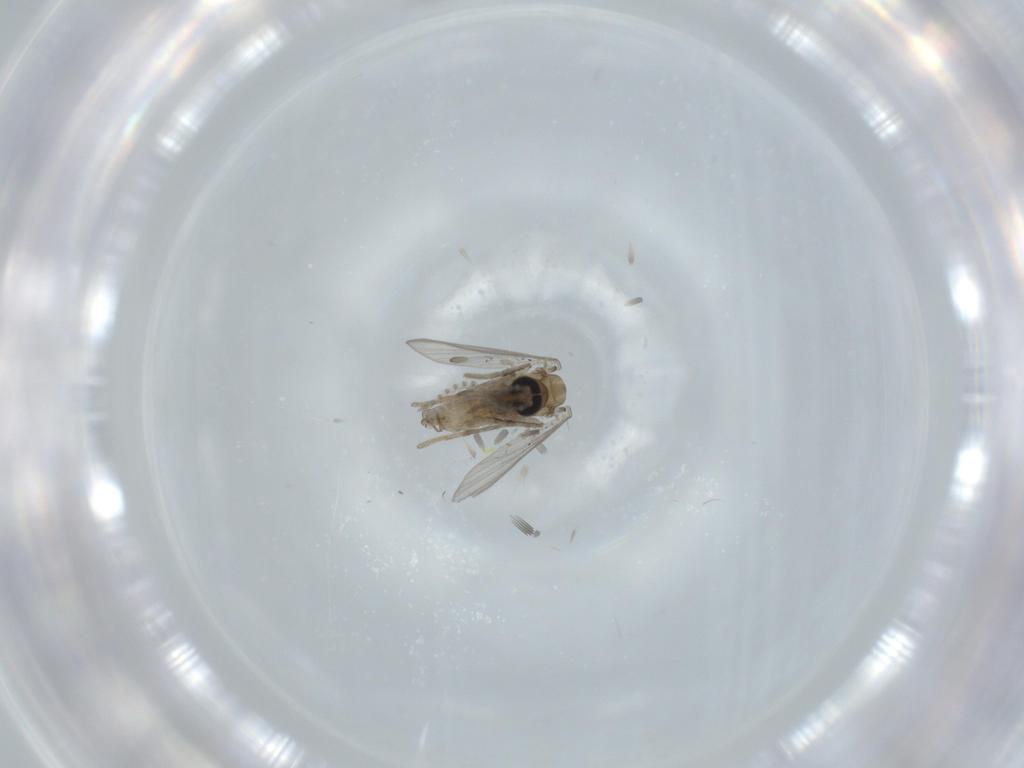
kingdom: Animalia
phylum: Arthropoda
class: Insecta
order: Diptera
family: Psychodidae
